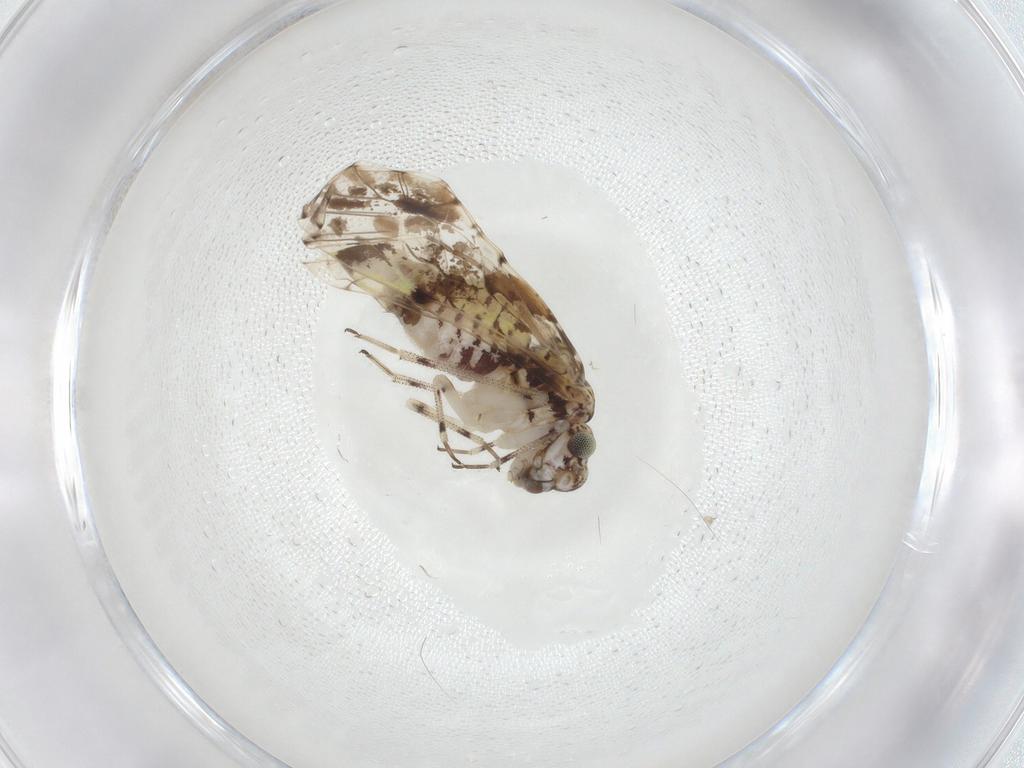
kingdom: Animalia
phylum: Arthropoda
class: Insecta
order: Psocodea
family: Psocidae
